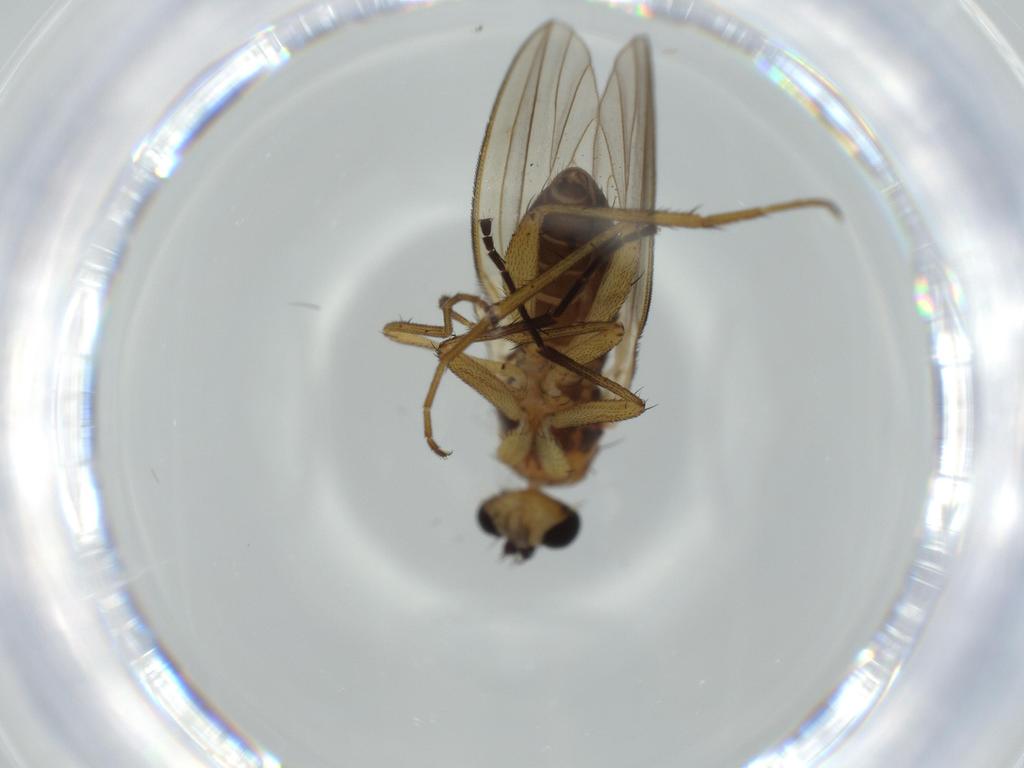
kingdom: Animalia
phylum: Arthropoda
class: Insecta
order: Diptera
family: Lonchopteridae
